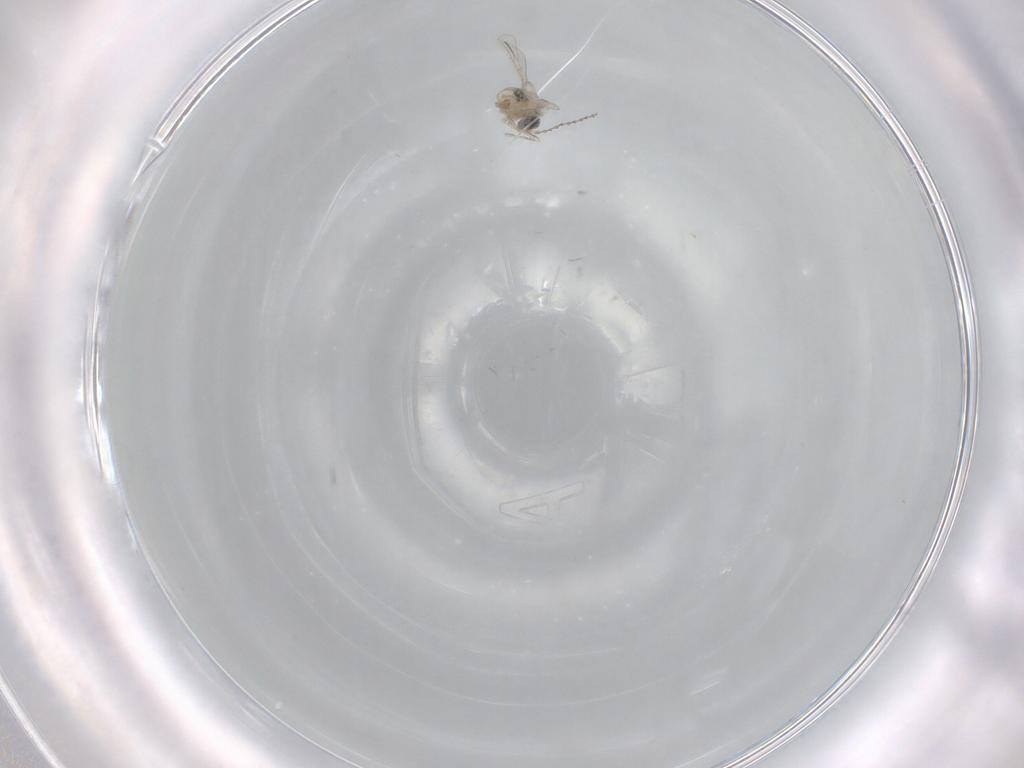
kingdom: Animalia
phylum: Arthropoda
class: Insecta
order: Diptera
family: Cecidomyiidae
